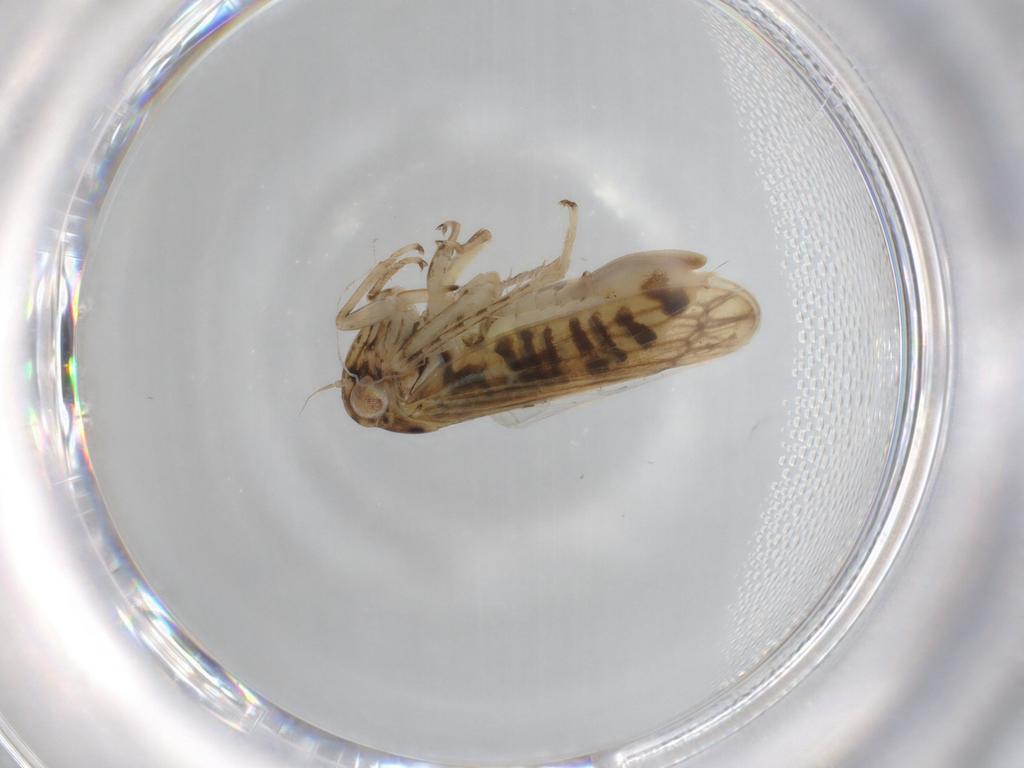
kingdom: Animalia
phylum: Arthropoda
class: Insecta
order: Hemiptera
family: Cicadellidae
